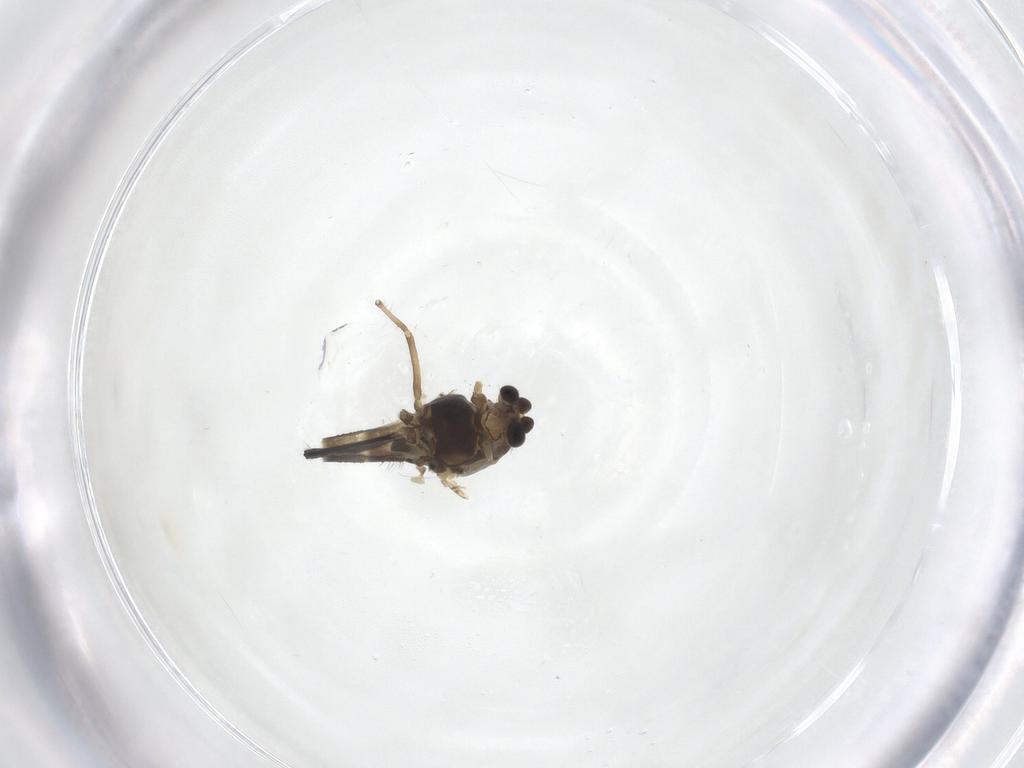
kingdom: Animalia
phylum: Arthropoda
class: Insecta
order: Diptera
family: Chironomidae
